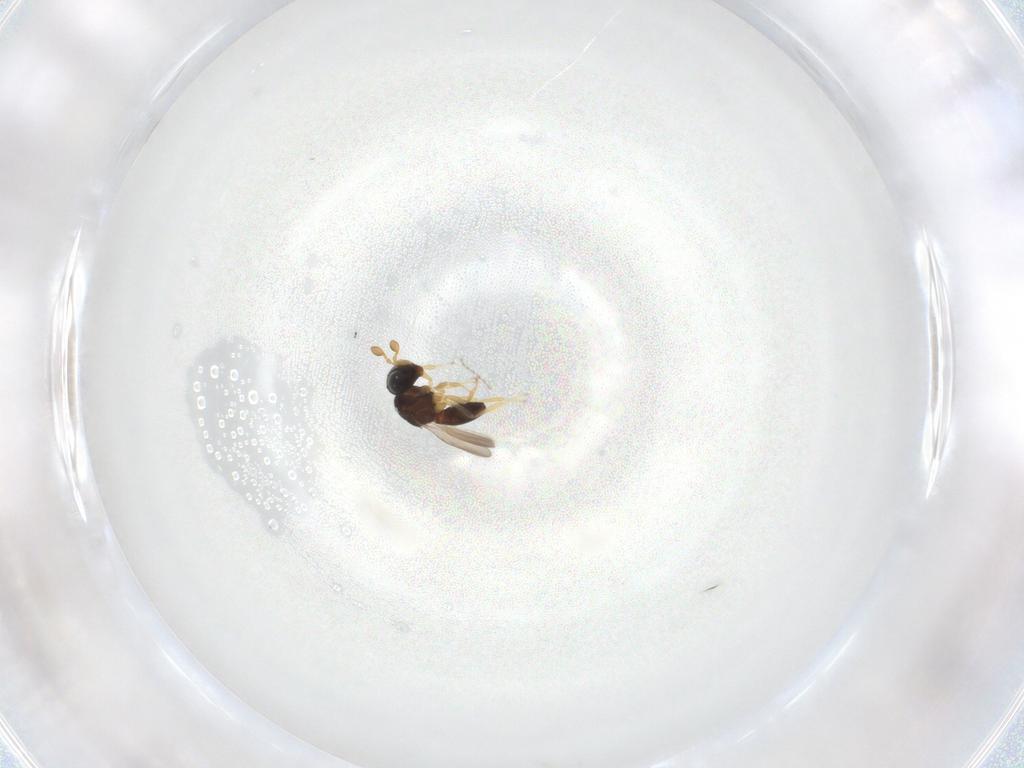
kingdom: Animalia
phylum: Arthropoda
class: Insecta
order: Hymenoptera
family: Scelionidae
